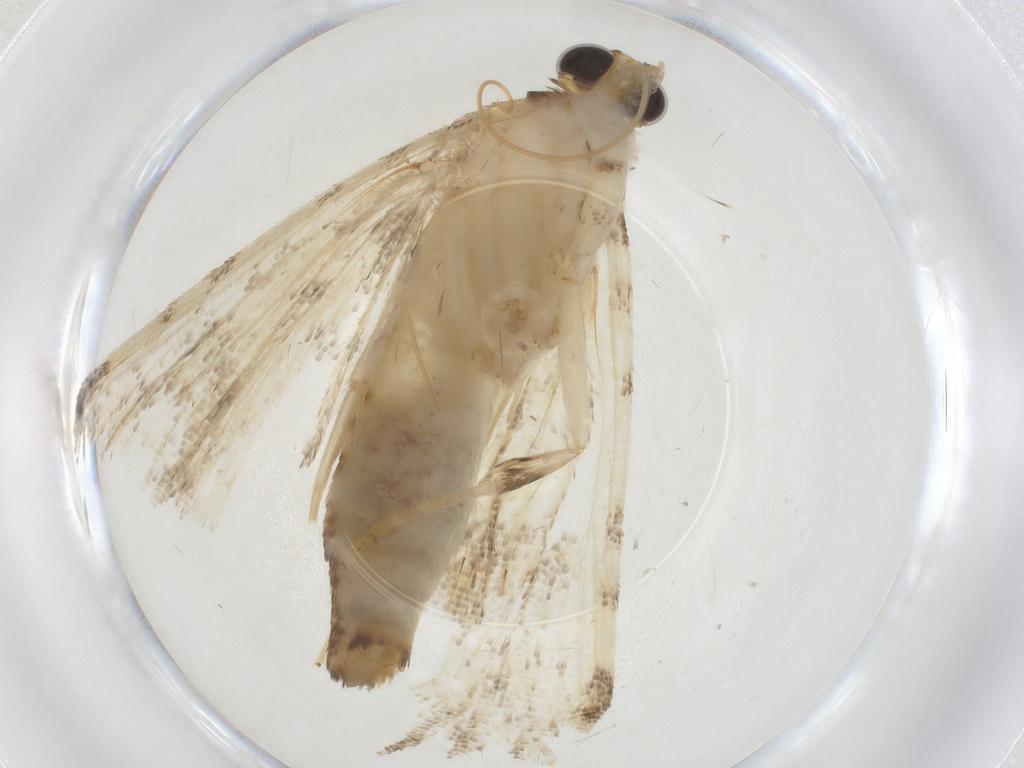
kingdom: Animalia
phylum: Arthropoda
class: Insecta
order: Lepidoptera
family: Crambidae
